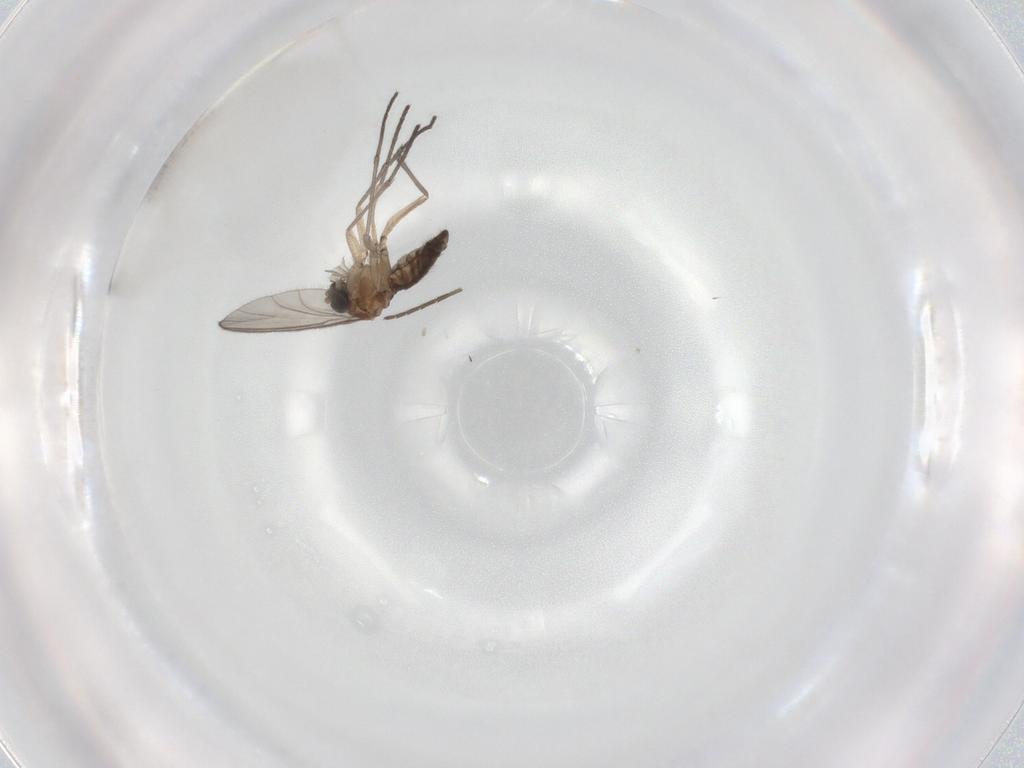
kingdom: Animalia
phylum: Arthropoda
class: Insecta
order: Diptera
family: Sciaridae
